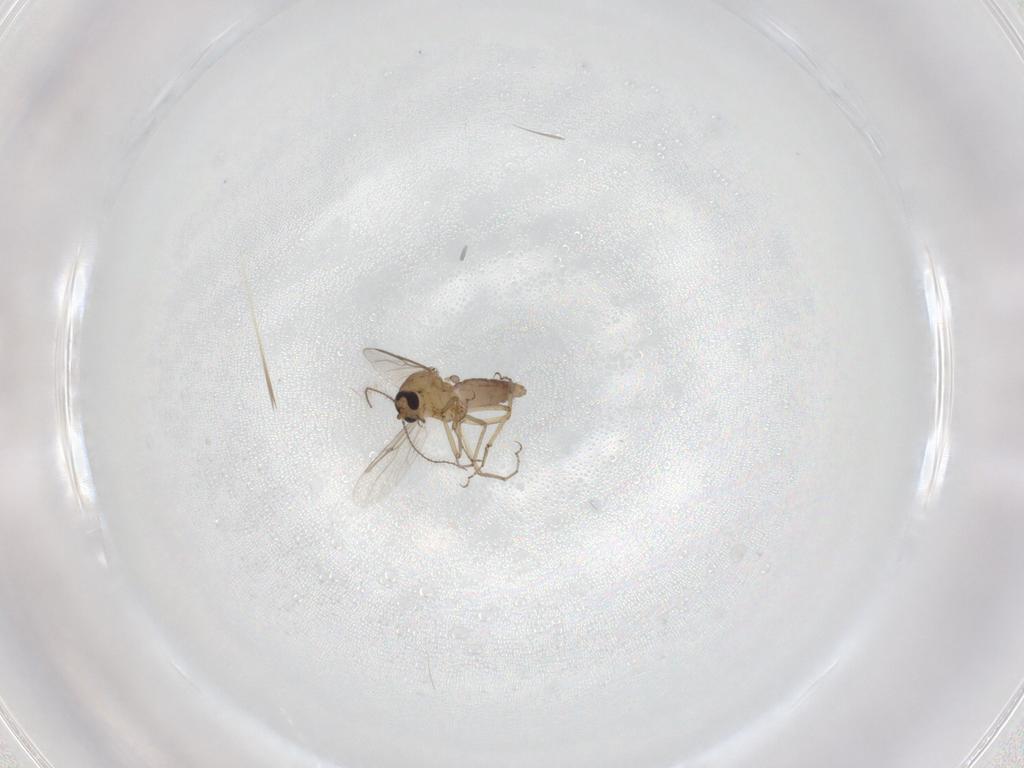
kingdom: Animalia
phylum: Arthropoda
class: Insecta
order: Diptera
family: Ceratopogonidae
